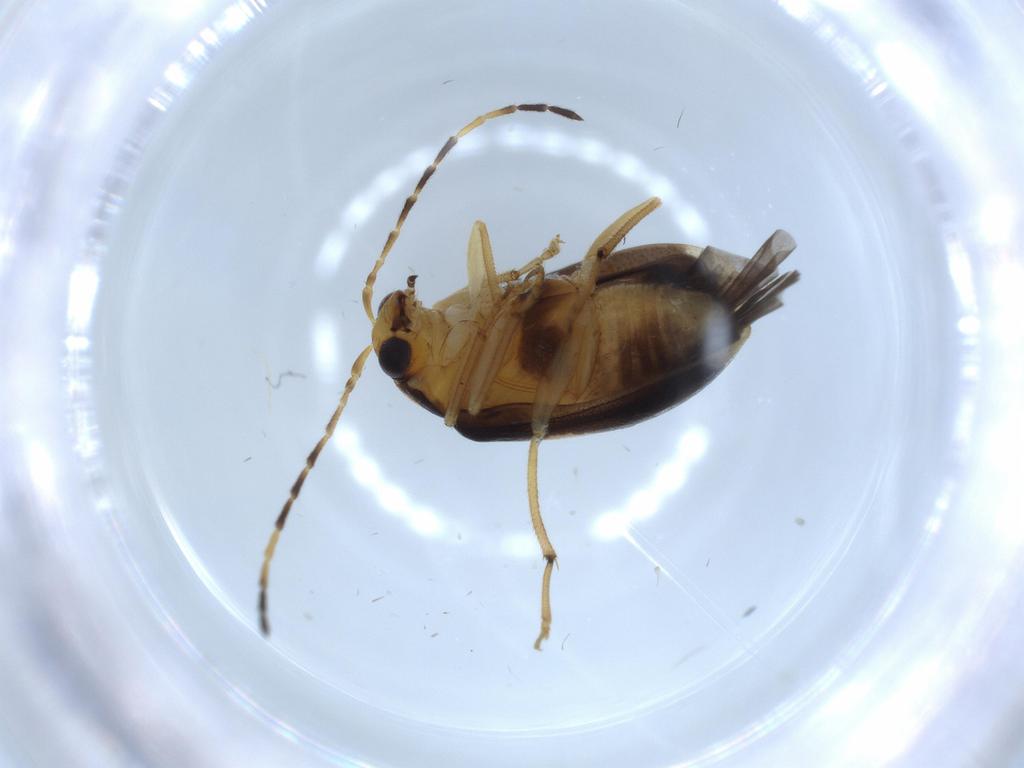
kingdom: Animalia
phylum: Arthropoda
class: Insecta
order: Coleoptera
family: Chrysomelidae
